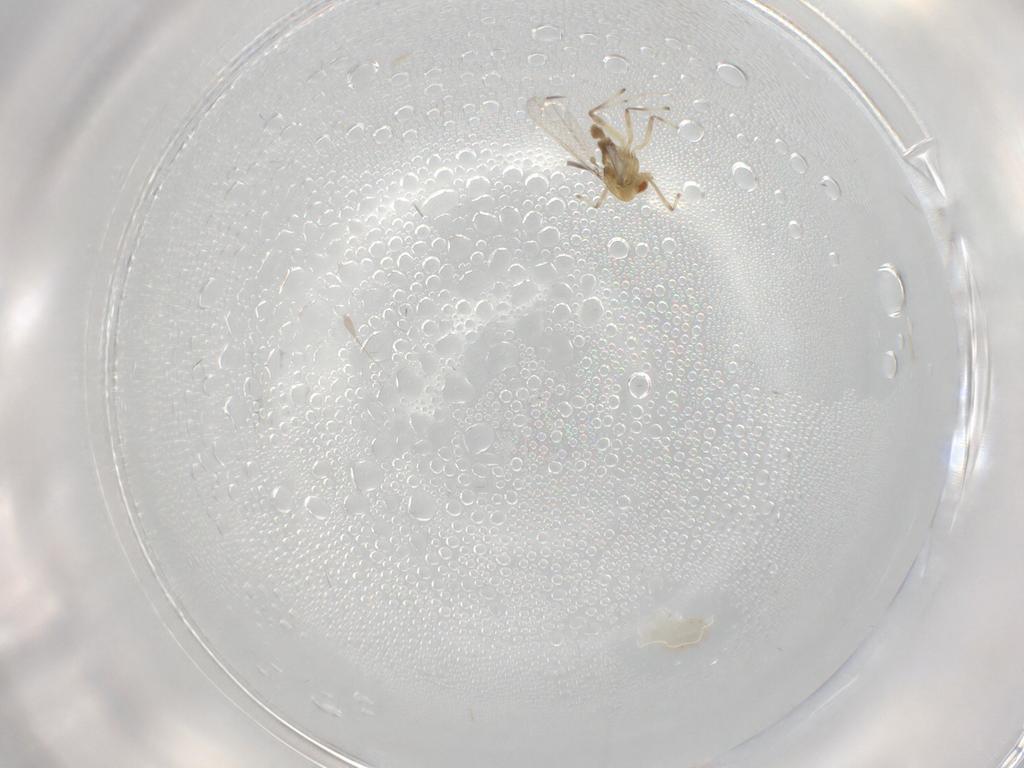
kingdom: Animalia
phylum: Arthropoda
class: Insecta
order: Diptera
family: Chironomidae
